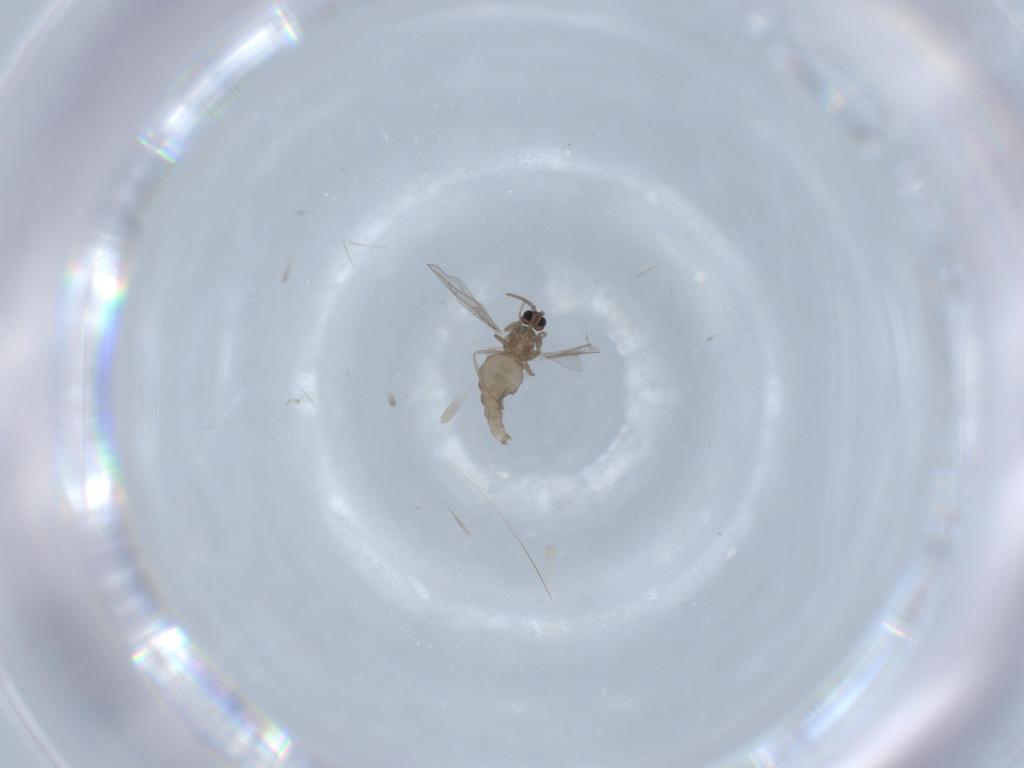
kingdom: Animalia
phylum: Arthropoda
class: Insecta
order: Diptera
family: Cecidomyiidae
